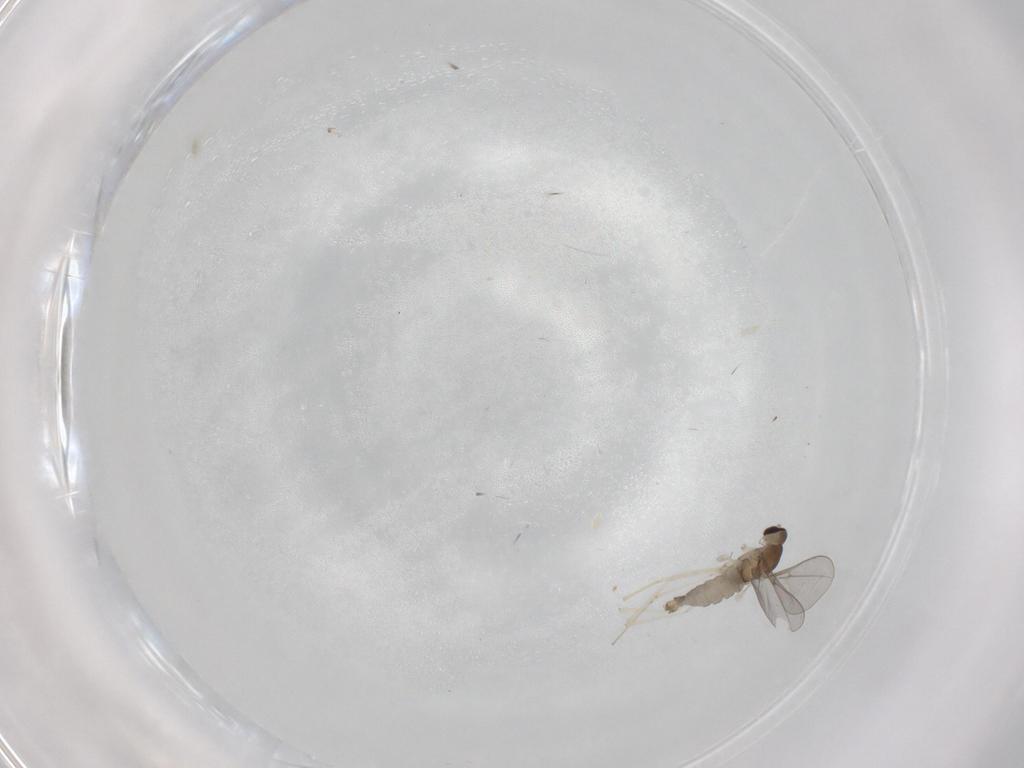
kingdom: Animalia
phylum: Arthropoda
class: Insecta
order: Diptera
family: Cecidomyiidae
